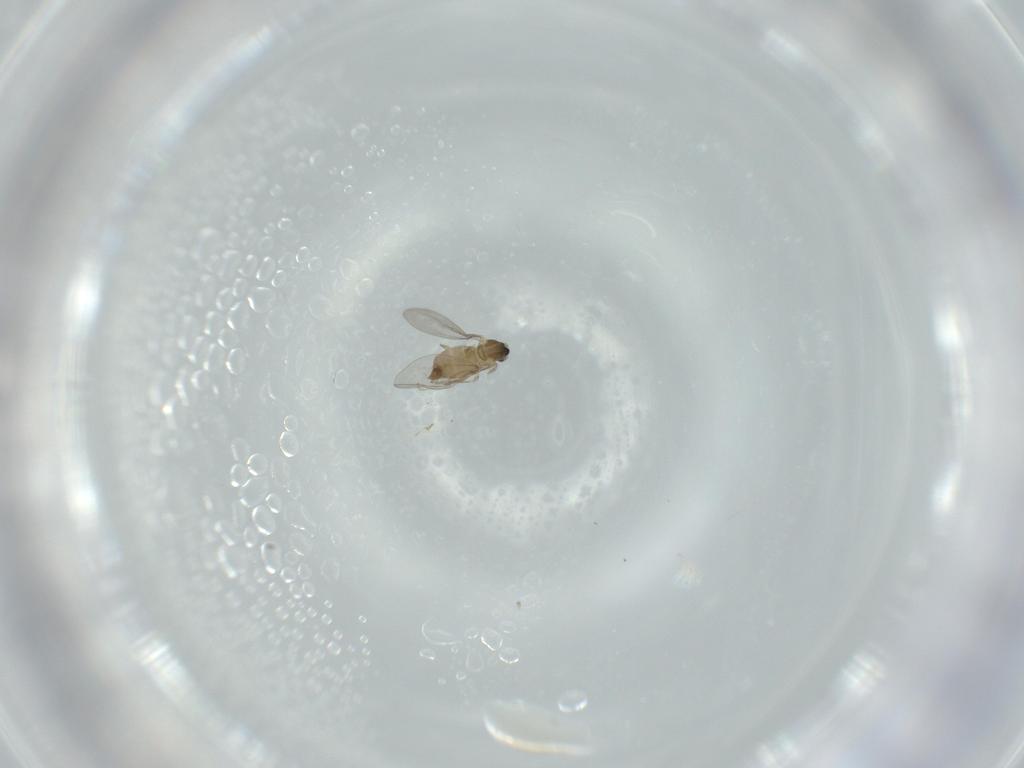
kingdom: Animalia
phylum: Arthropoda
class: Insecta
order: Diptera
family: Cecidomyiidae
